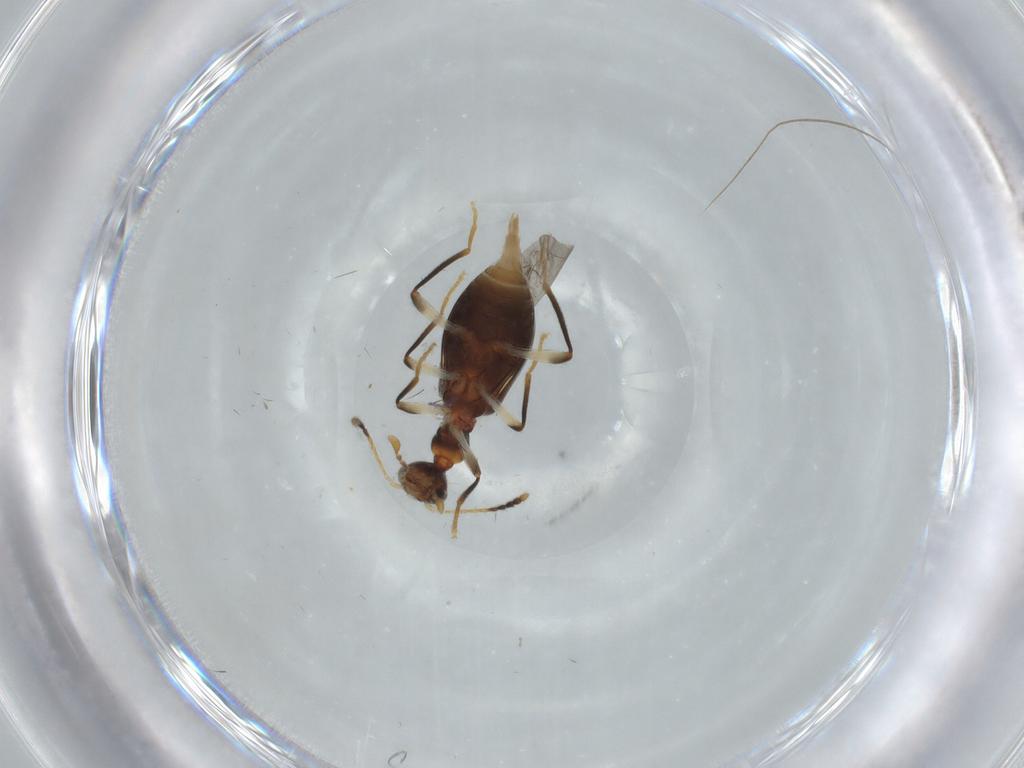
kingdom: Animalia
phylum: Arthropoda
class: Insecta
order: Coleoptera
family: Anthicidae
